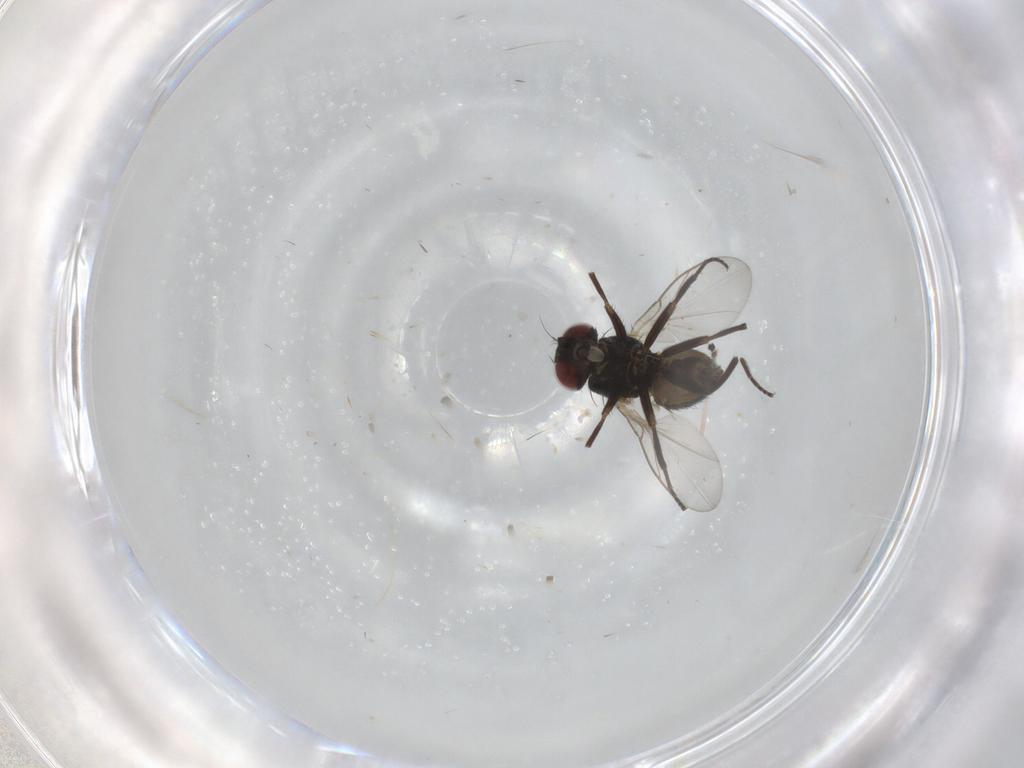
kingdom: Animalia
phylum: Arthropoda
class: Insecta
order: Diptera
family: Agromyzidae
